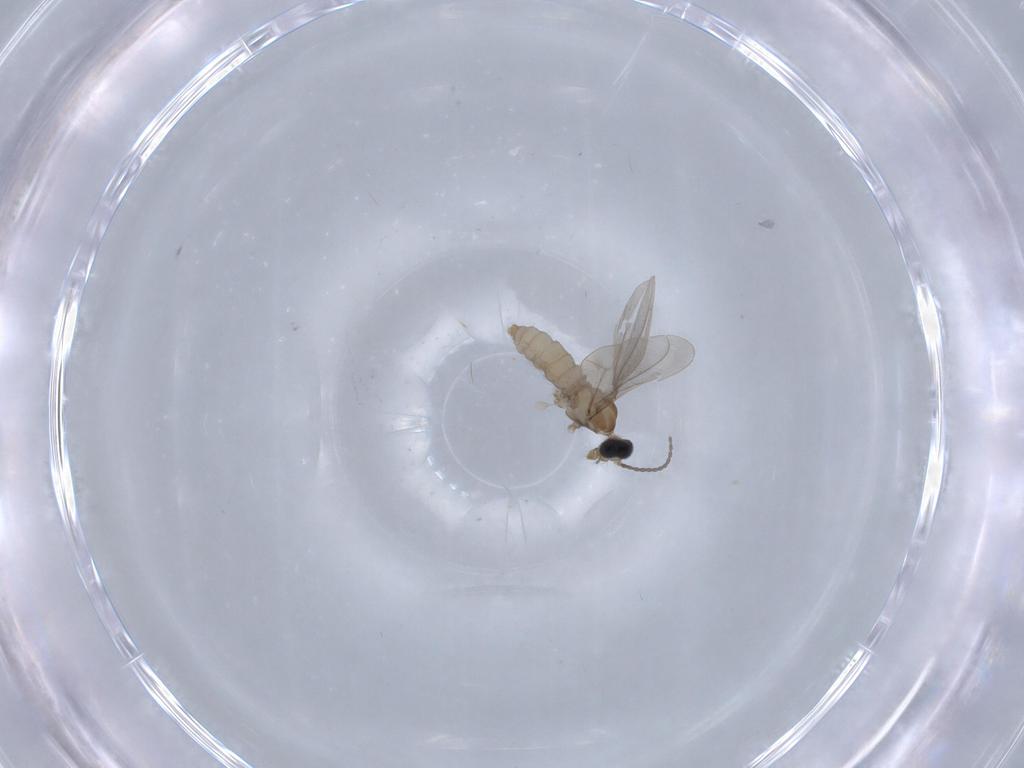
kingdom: Animalia
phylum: Arthropoda
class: Insecta
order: Diptera
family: Cecidomyiidae
